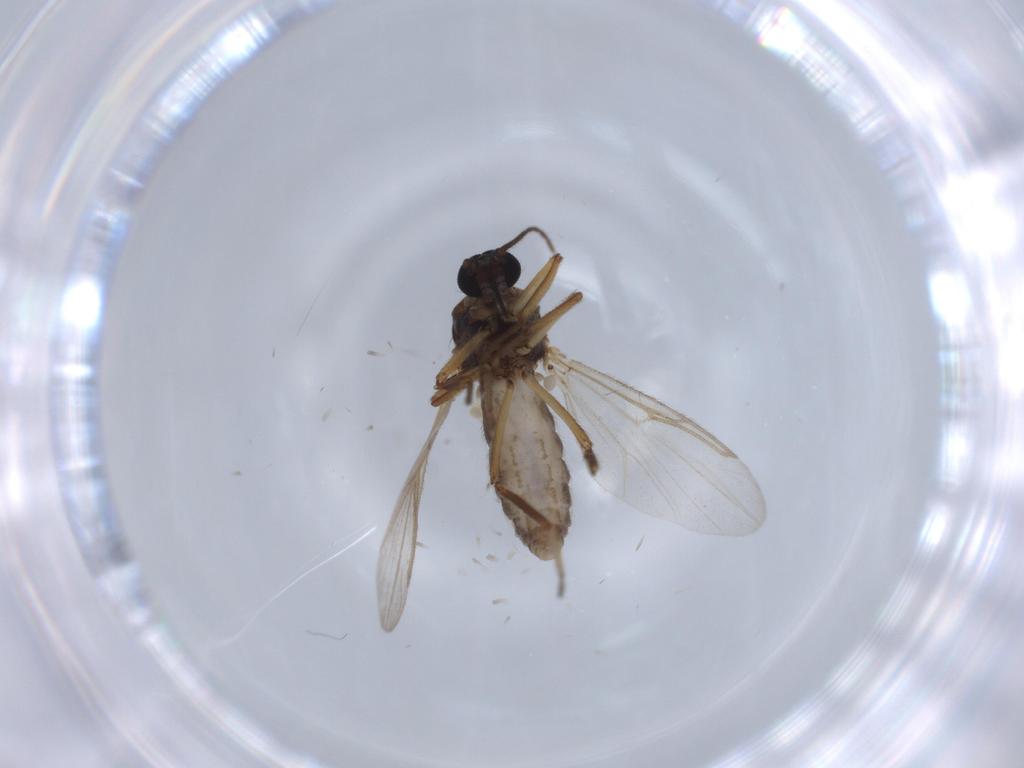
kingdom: Animalia
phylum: Arthropoda
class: Insecta
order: Diptera
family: Ceratopogonidae
